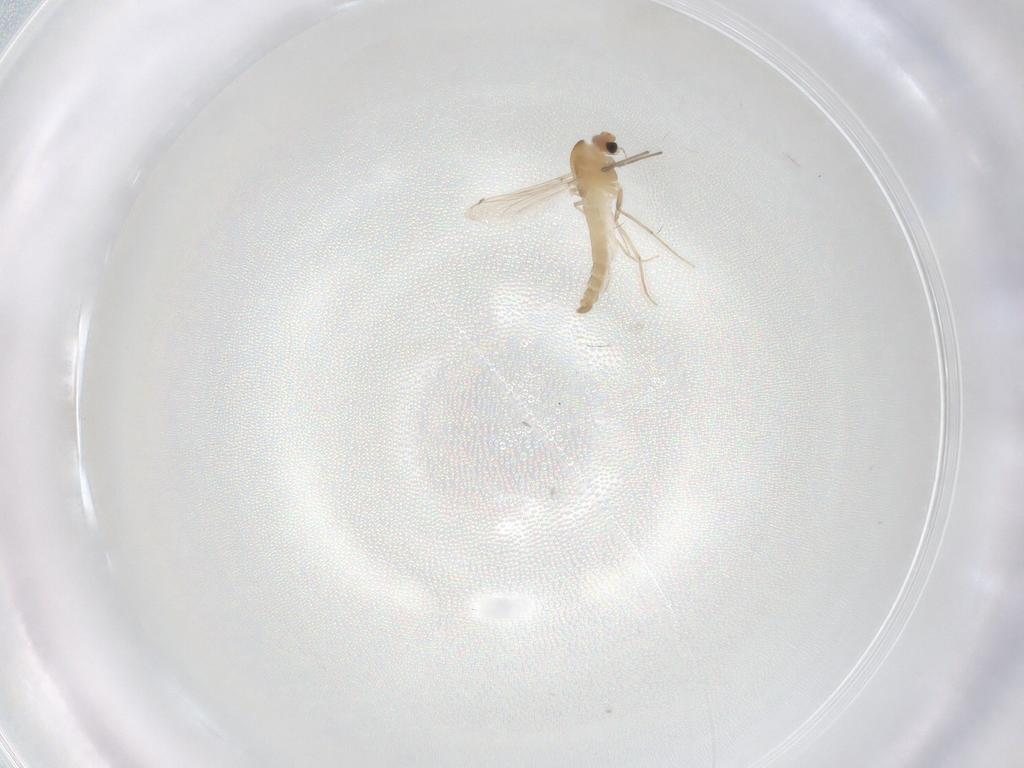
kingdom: Animalia
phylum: Arthropoda
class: Insecta
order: Diptera
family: Chironomidae
